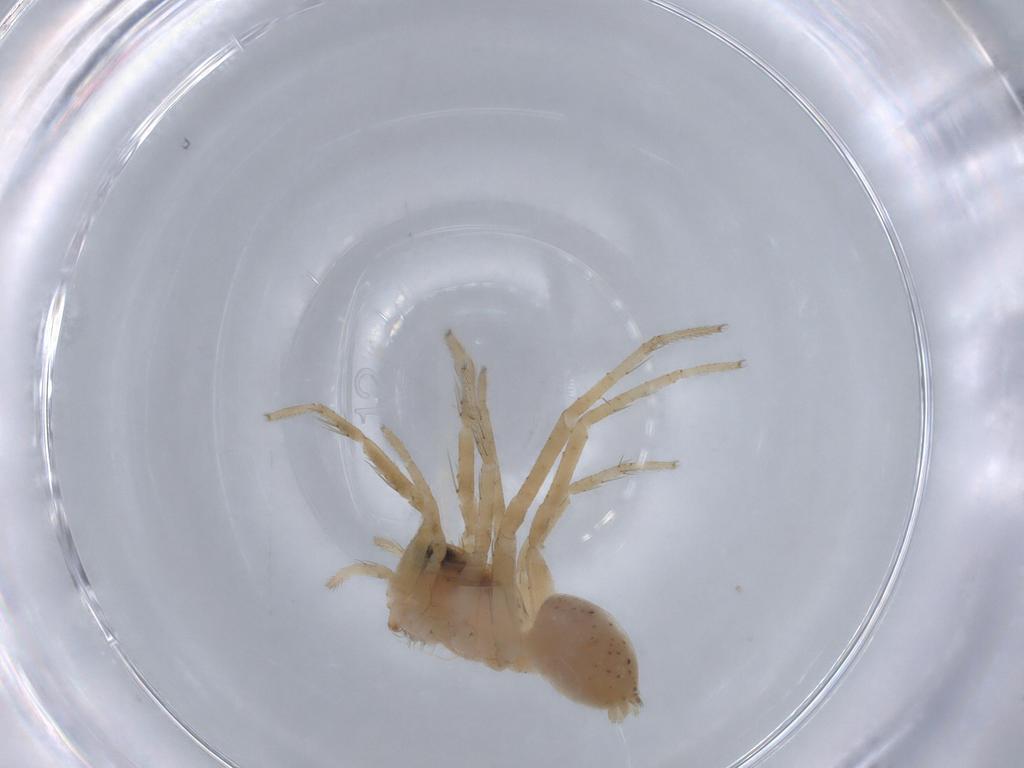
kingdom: Animalia
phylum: Arthropoda
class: Arachnida
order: Araneae
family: Lycosidae
